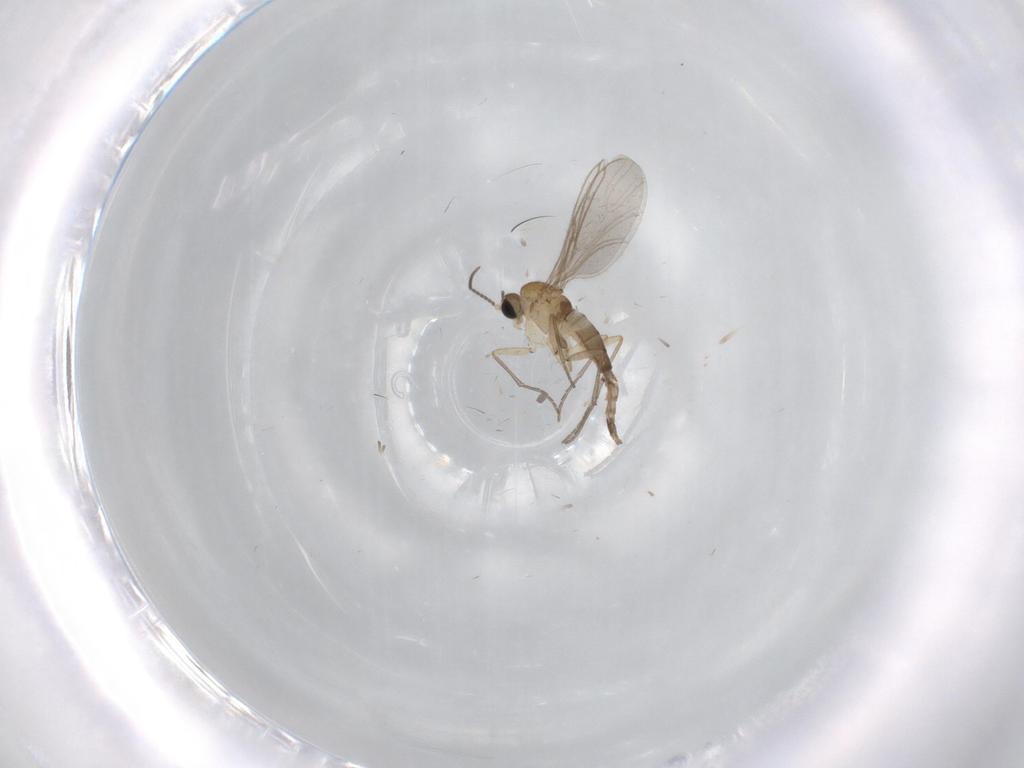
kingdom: Animalia
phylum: Arthropoda
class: Insecta
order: Diptera
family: Sciaridae
